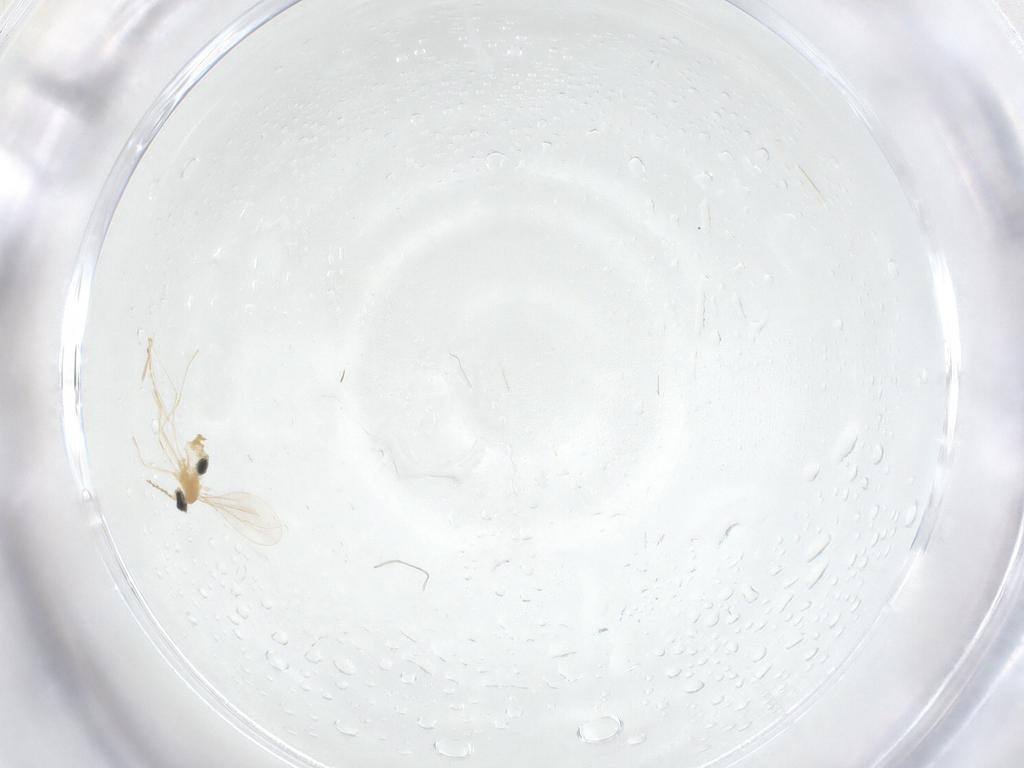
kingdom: Animalia
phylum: Arthropoda
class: Insecta
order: Diptera
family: Cecidomyiidae
